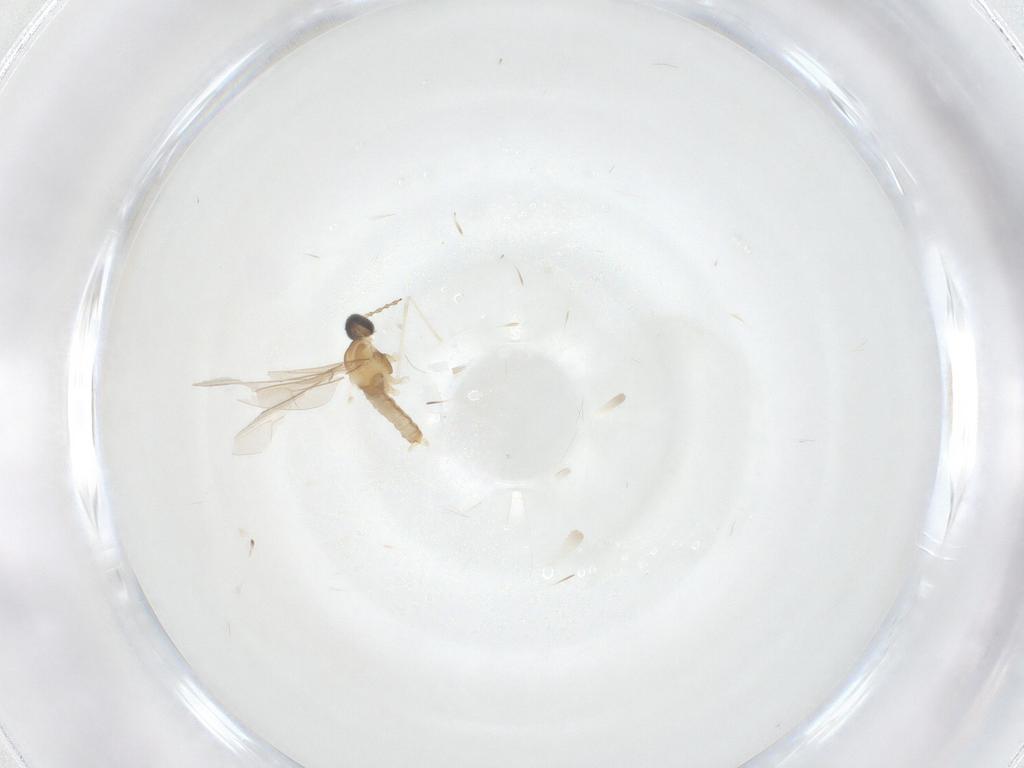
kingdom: Animalia
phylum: Arthropoda
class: Insecta
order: Diptera
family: Cecidomyiidae
